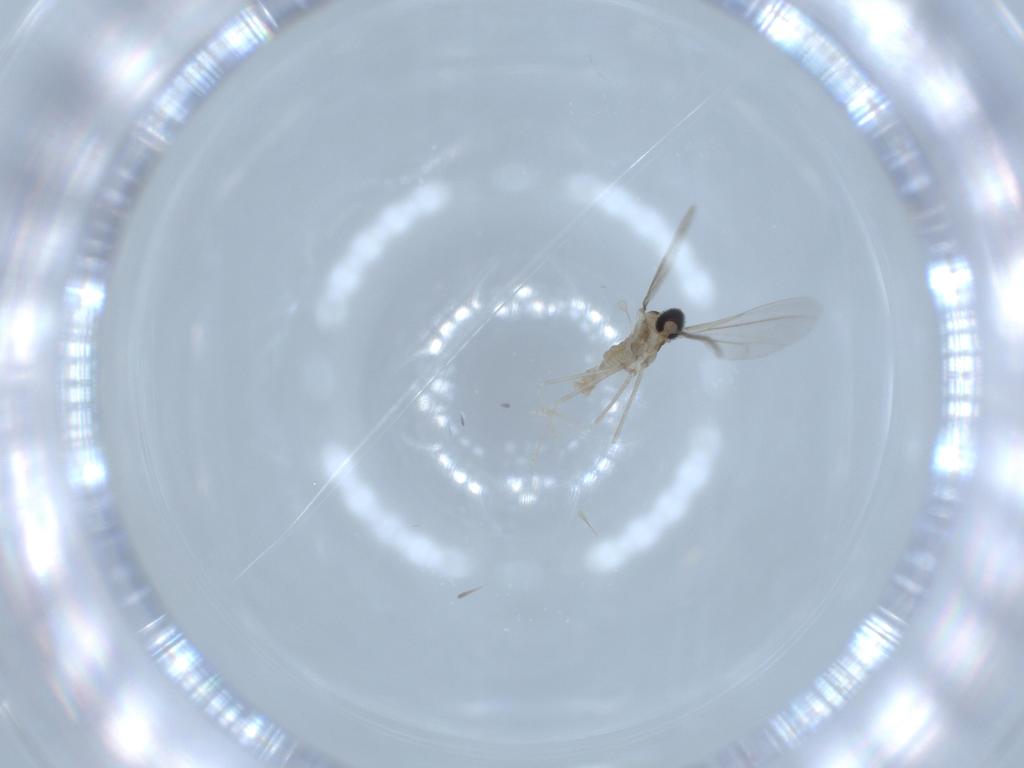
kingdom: Animalia
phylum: Arthropoda
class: Insecta
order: Diptera
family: Cecidomyiidae
